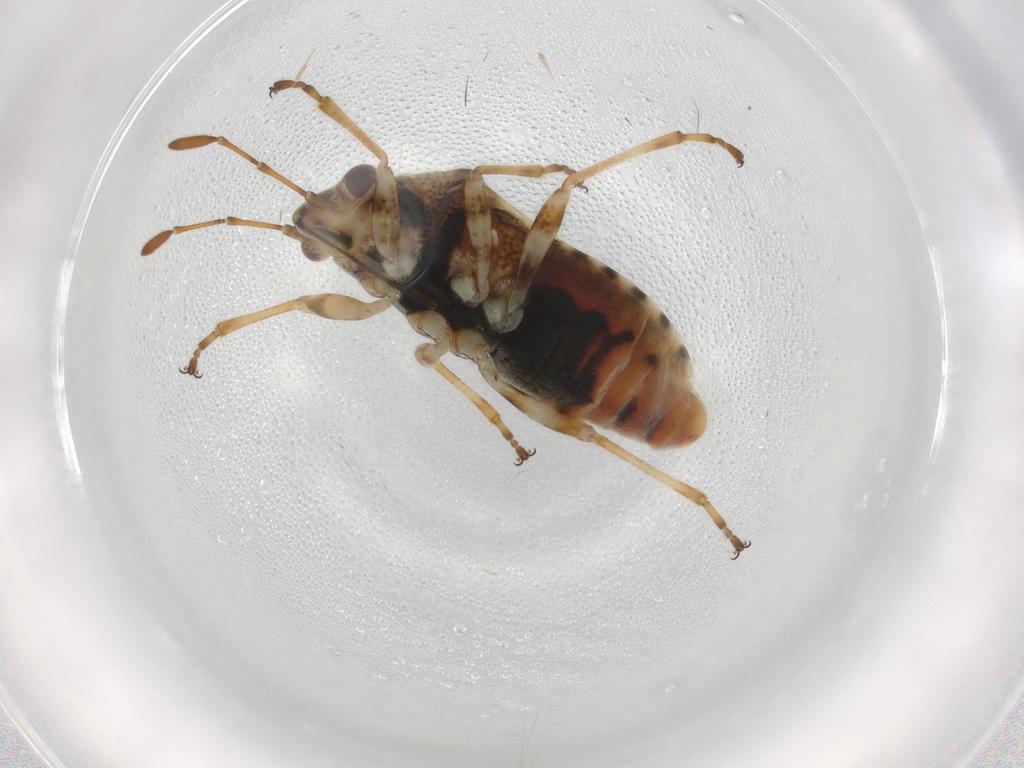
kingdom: Animalia
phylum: Arthropoda
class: Insecta
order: Hemiptera
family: Lygaeidae
